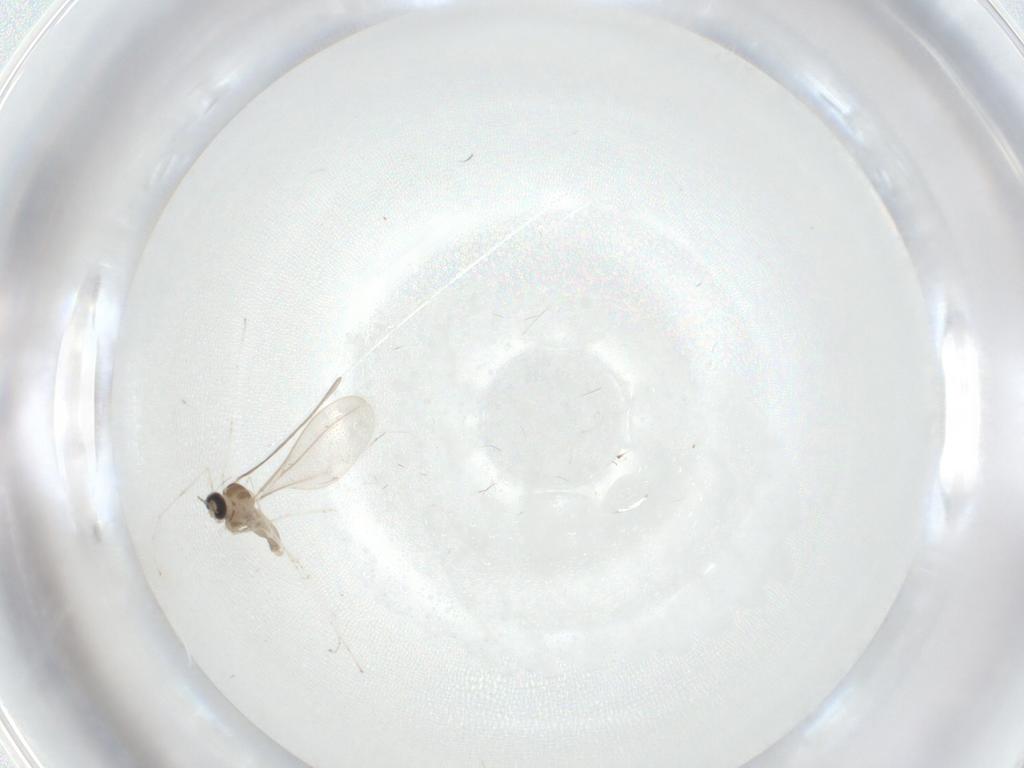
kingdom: Animalia
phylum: Arthropoda
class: Insecta
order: Diptera
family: Cecidomyiidae
